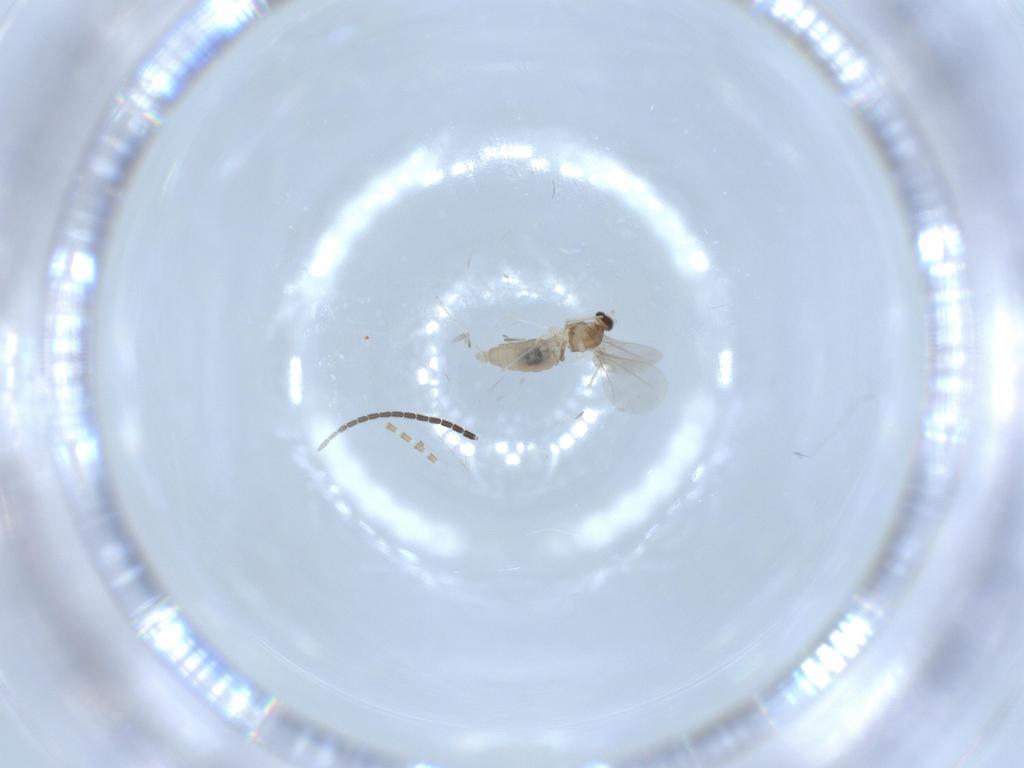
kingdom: Animalia
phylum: Arthropoda
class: Insecta
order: Diptera
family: Cecidomyiidae
